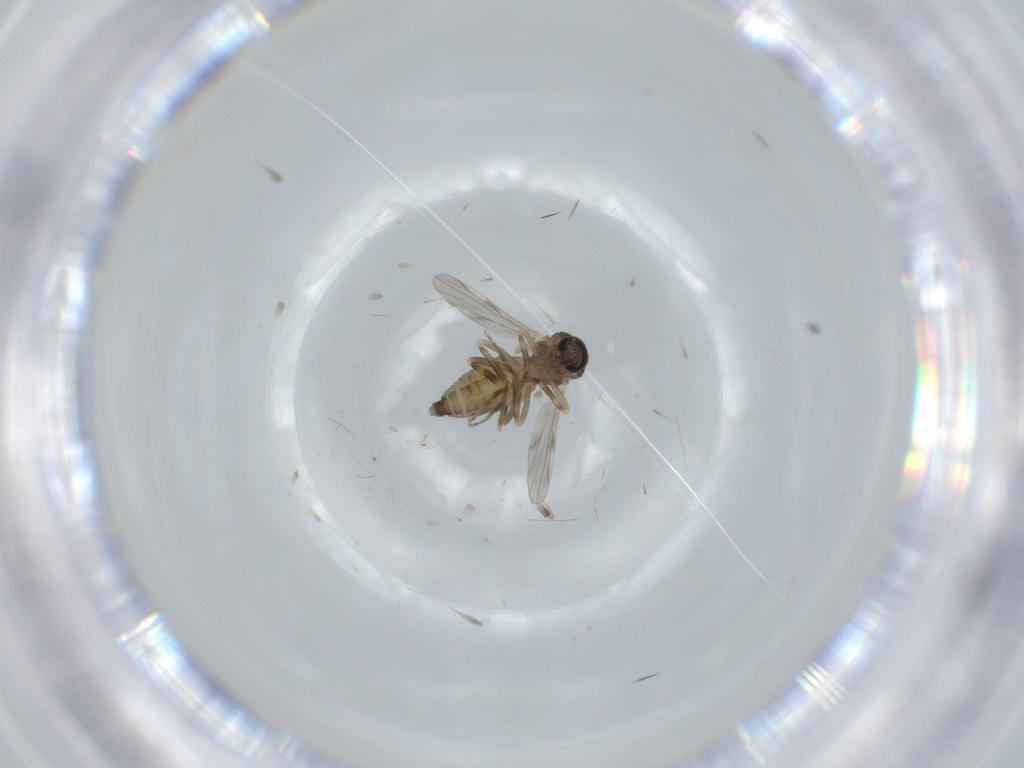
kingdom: Animalia
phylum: Arthropoda
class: Insecta
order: Diptera
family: Ceratopogonidae
